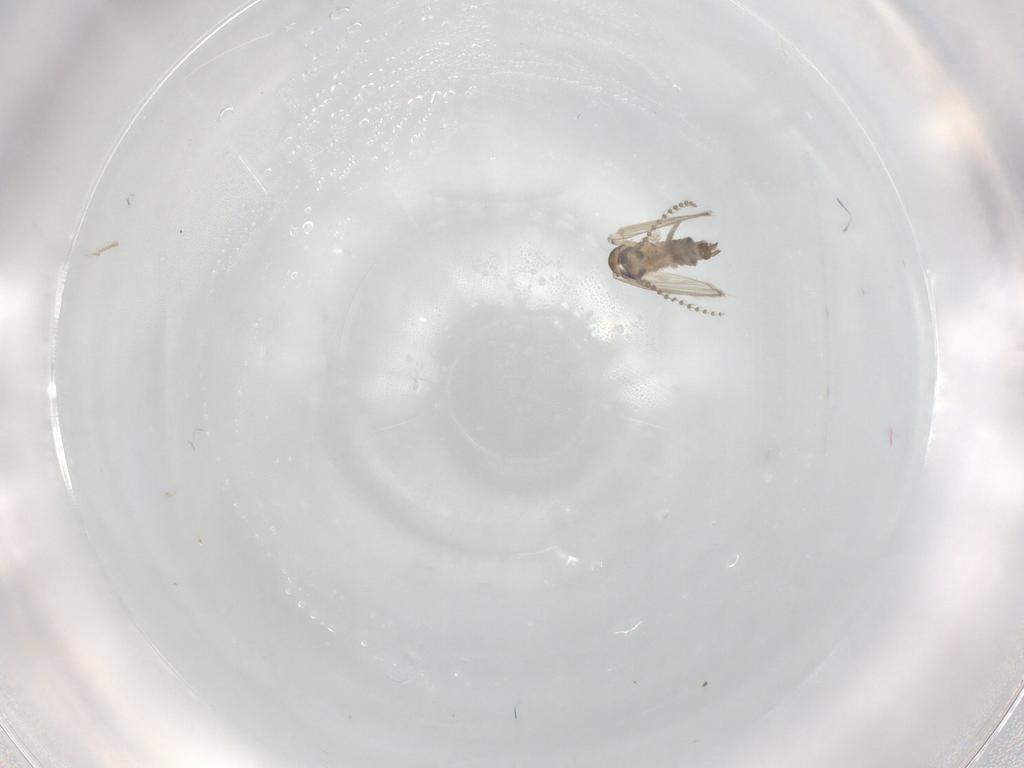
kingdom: Animalia
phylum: Arthropoda
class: Insecta
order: Diptera
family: Psychodidae
